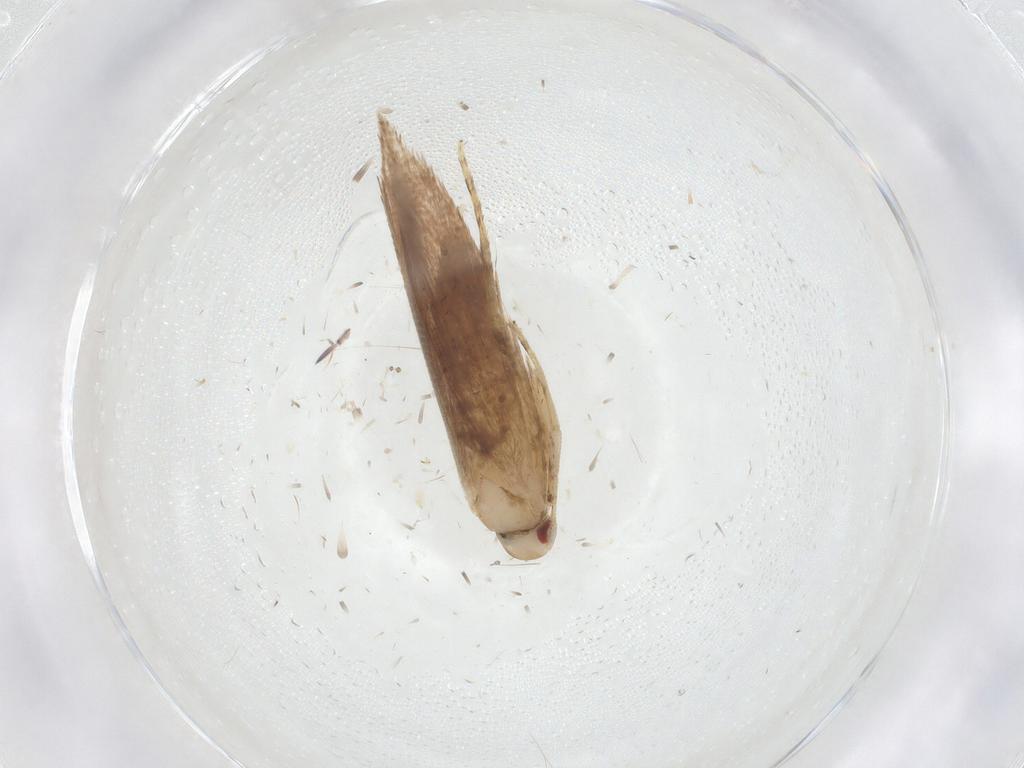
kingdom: Animalia
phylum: Arthropoda
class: Insecta
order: Lepidoptera
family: Cosmopterigidae
